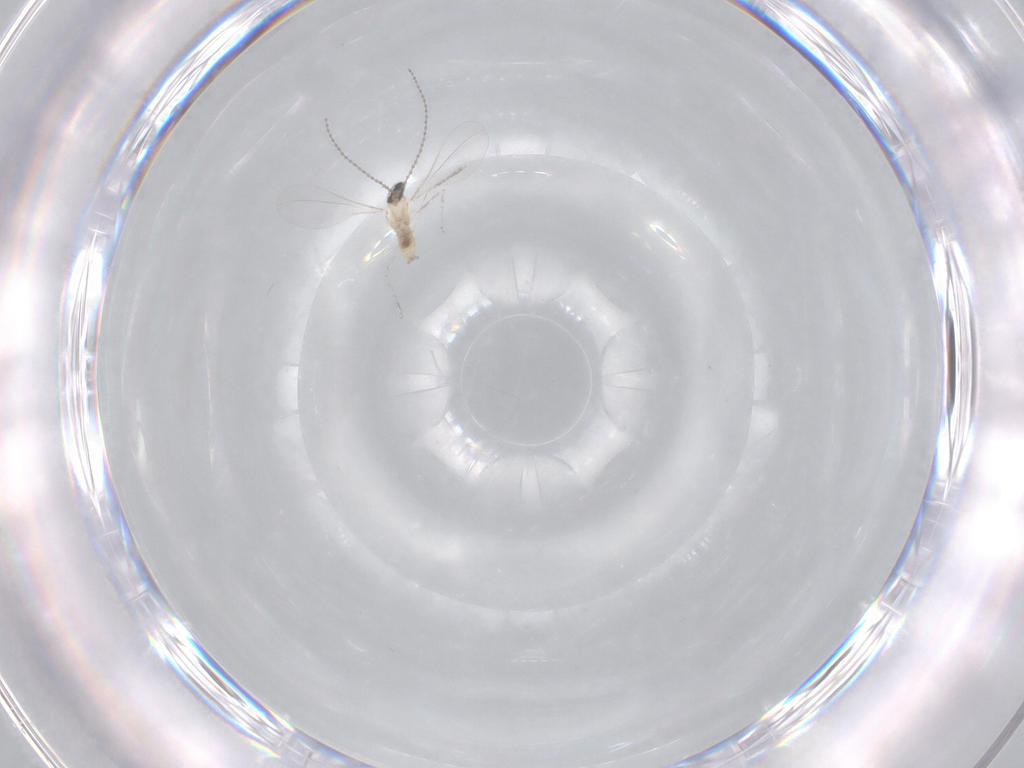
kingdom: Animalia
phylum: Arthropoda
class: Insecta
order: Diptera
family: Cecidomyiidae
